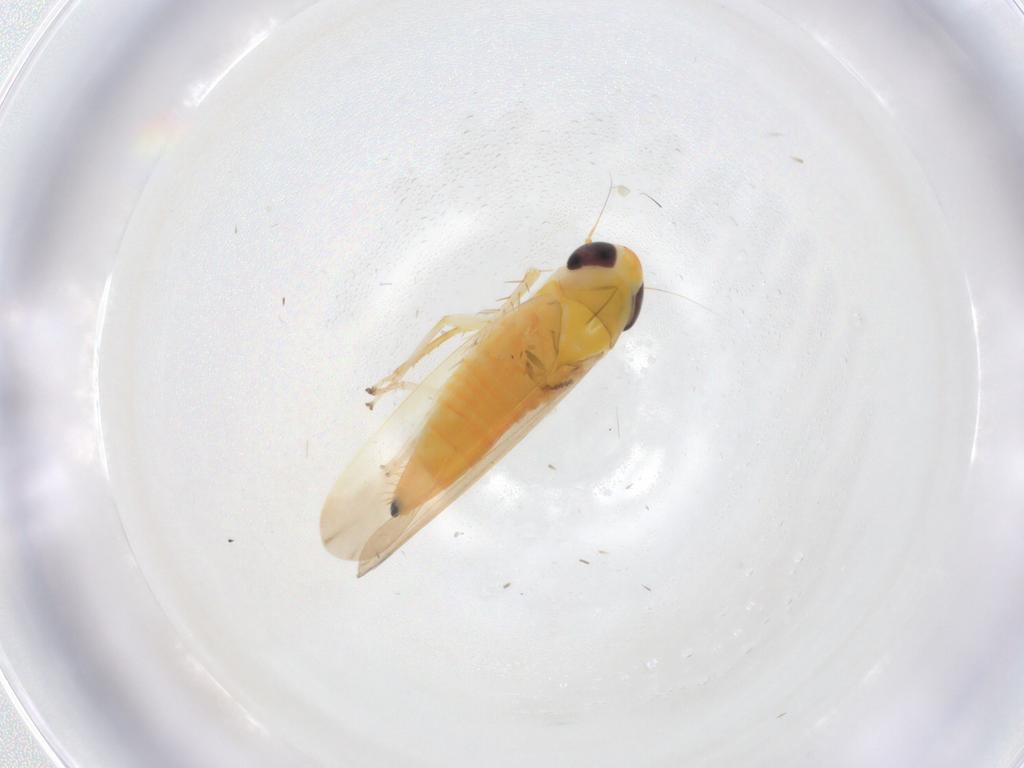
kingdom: Animalia
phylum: Arthropoda
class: Insecta
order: Hemiptera
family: Cicadellidae
